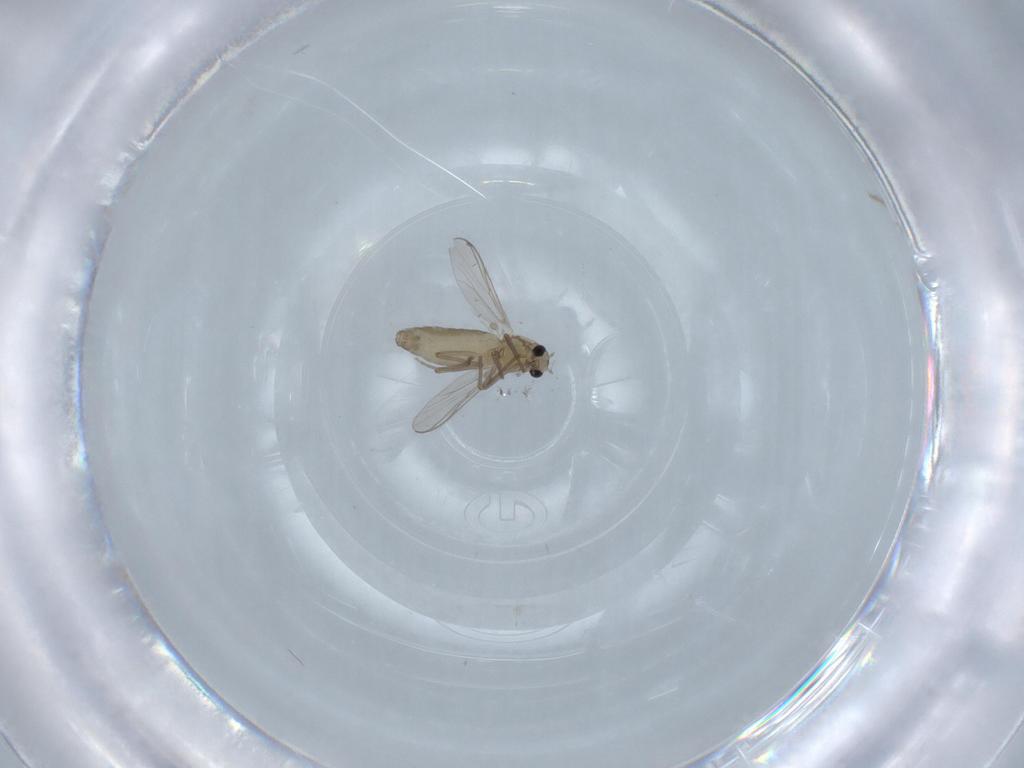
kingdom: Animalia
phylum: Arthropoda
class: Insecta
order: Diptera
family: Chironomidae
